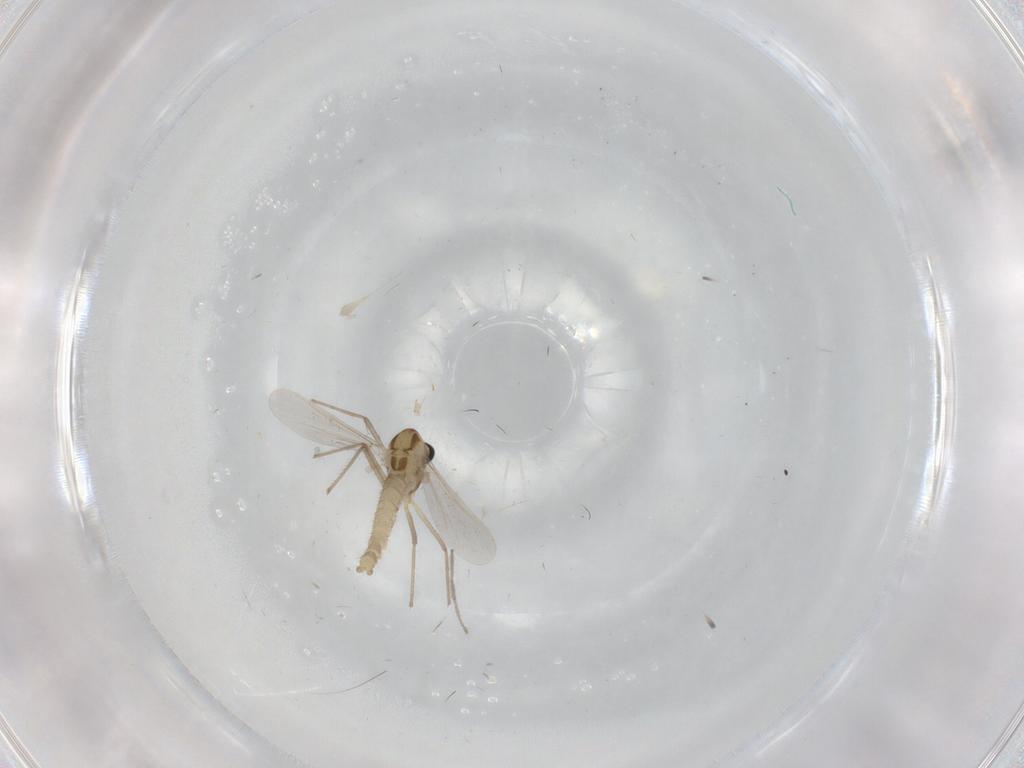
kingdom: Animalia
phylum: Arthropoda
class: Insecta
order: Diptera
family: Chironomidae
